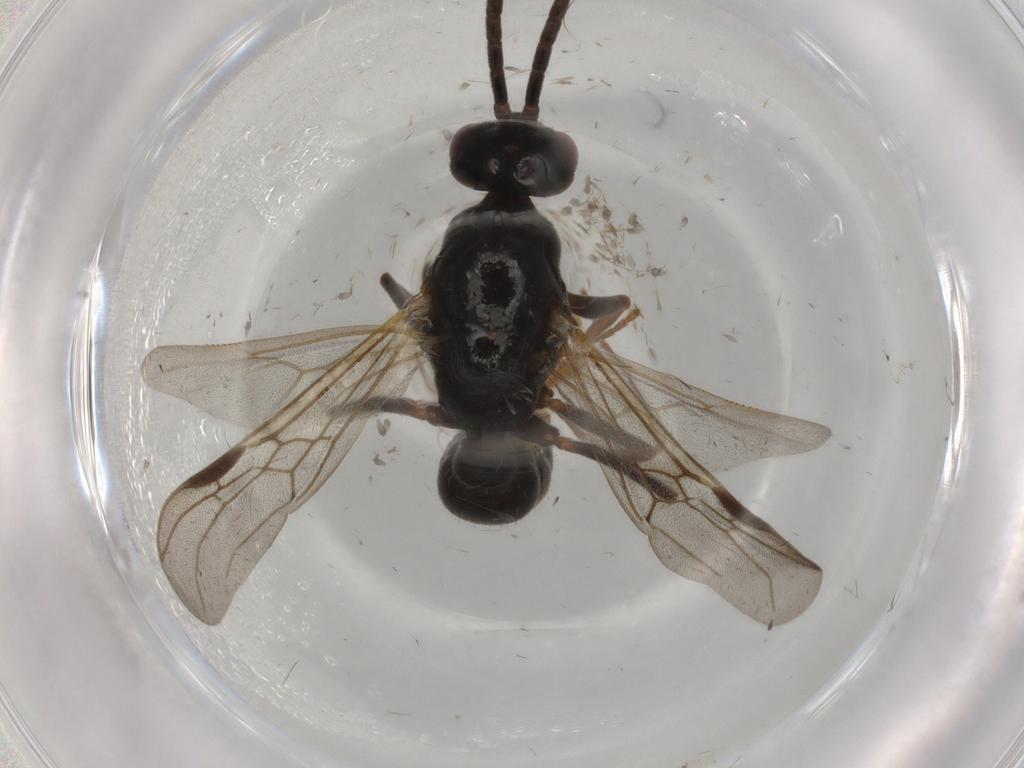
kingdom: Animalia
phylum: Arthropoda
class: Insecta
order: Hymenoptera
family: Formicidae
